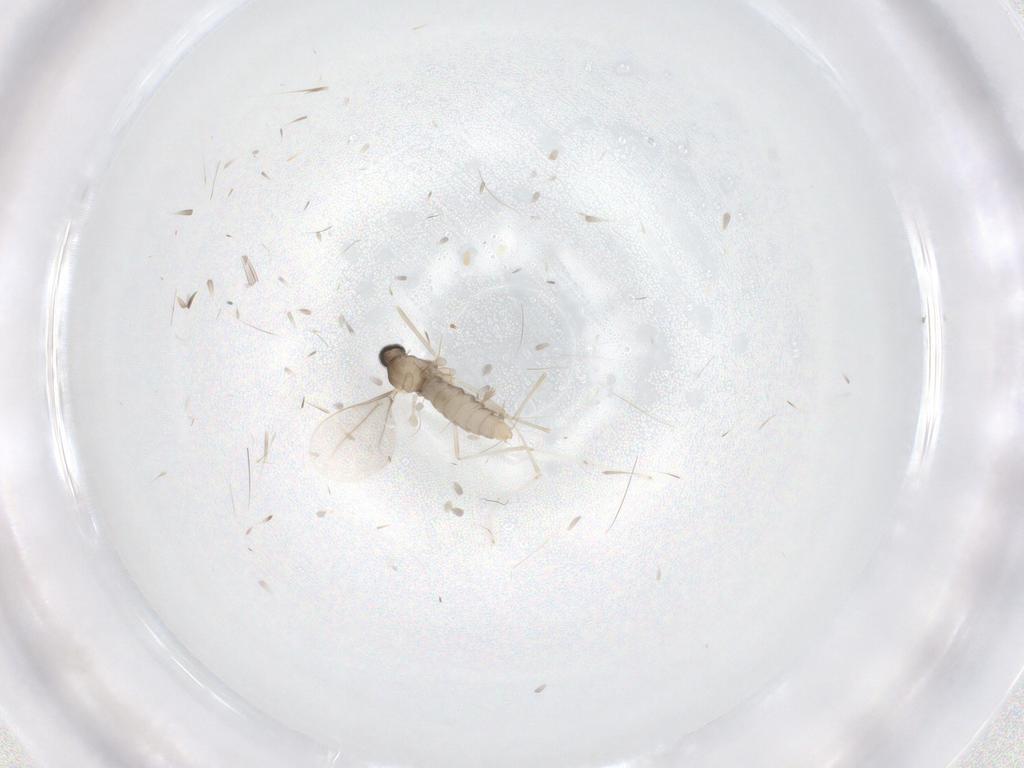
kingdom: Animalia
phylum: Arthropoda
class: Insecta
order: Diptera
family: Cecidomyiidae
